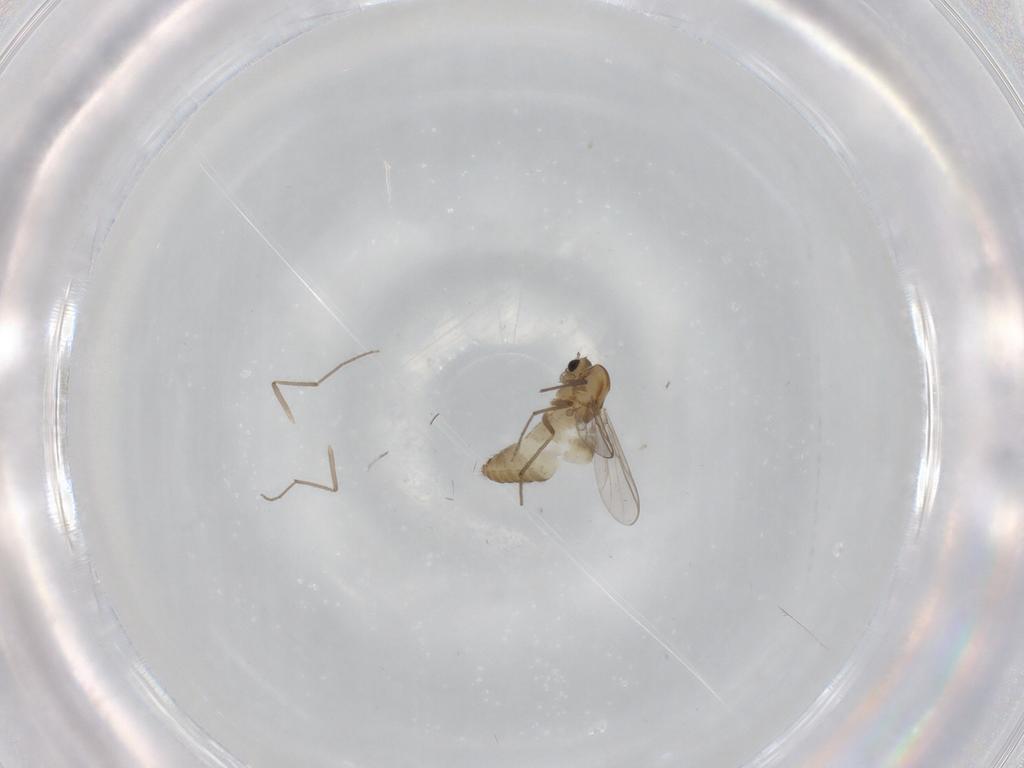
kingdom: Animalia
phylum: Arthropoda
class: Insecta
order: Diptera
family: Chironomidae
